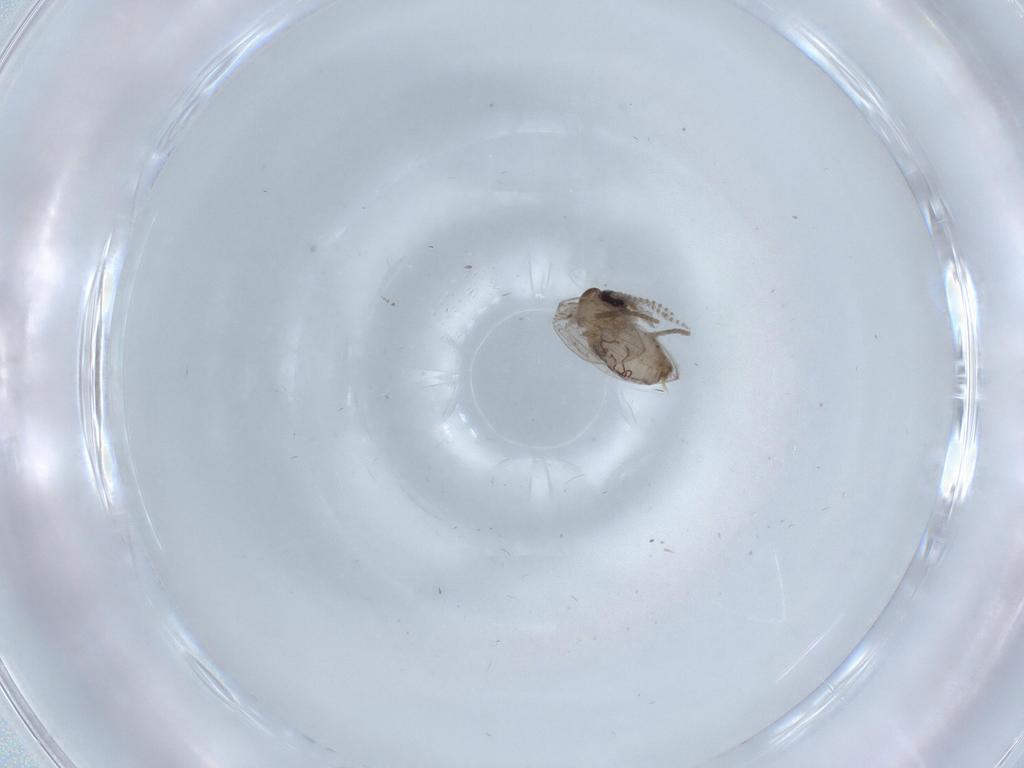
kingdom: Animalia
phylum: Arthropoda
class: Insecta
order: Diptera
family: Psychodidae
